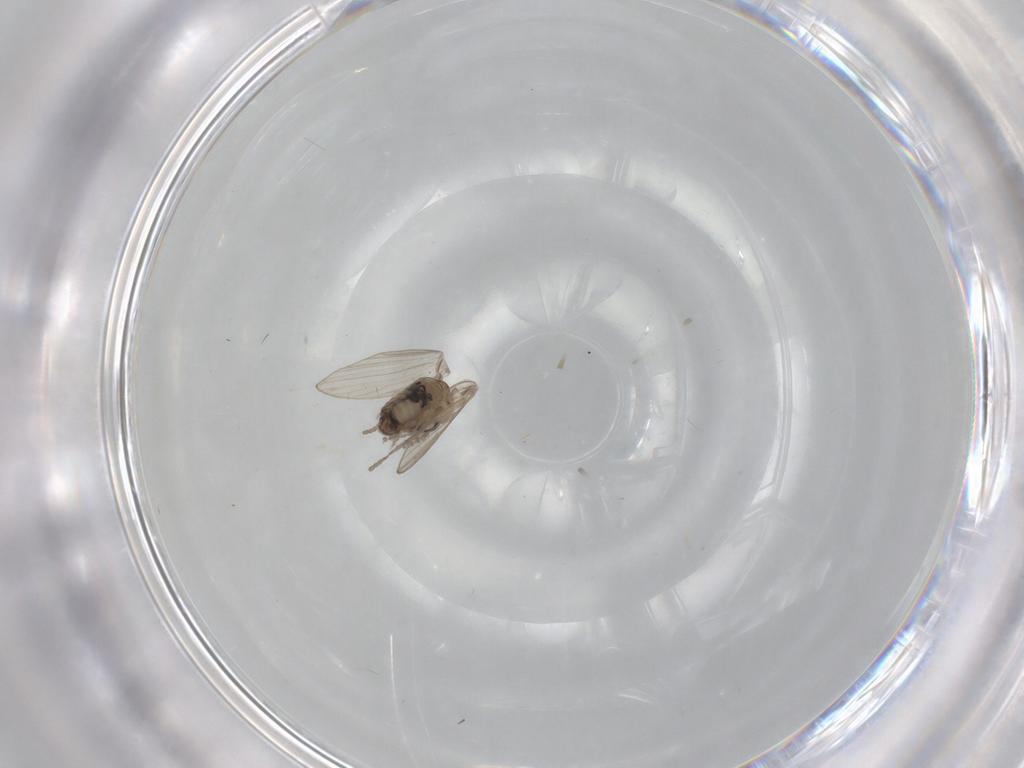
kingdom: Animalia
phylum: Arthropoda
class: Insecta
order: Diptera
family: Psychodidae
